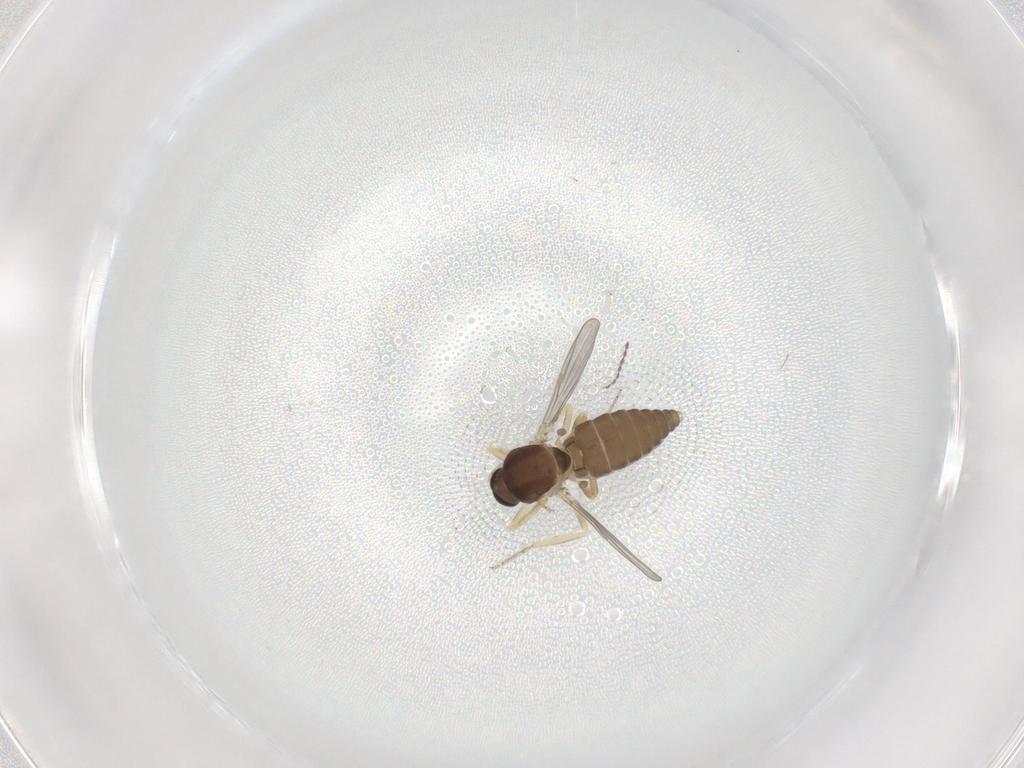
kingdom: Animalia
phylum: Arthropoda
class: Insecta
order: Diptera
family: Ceratopogonidae
